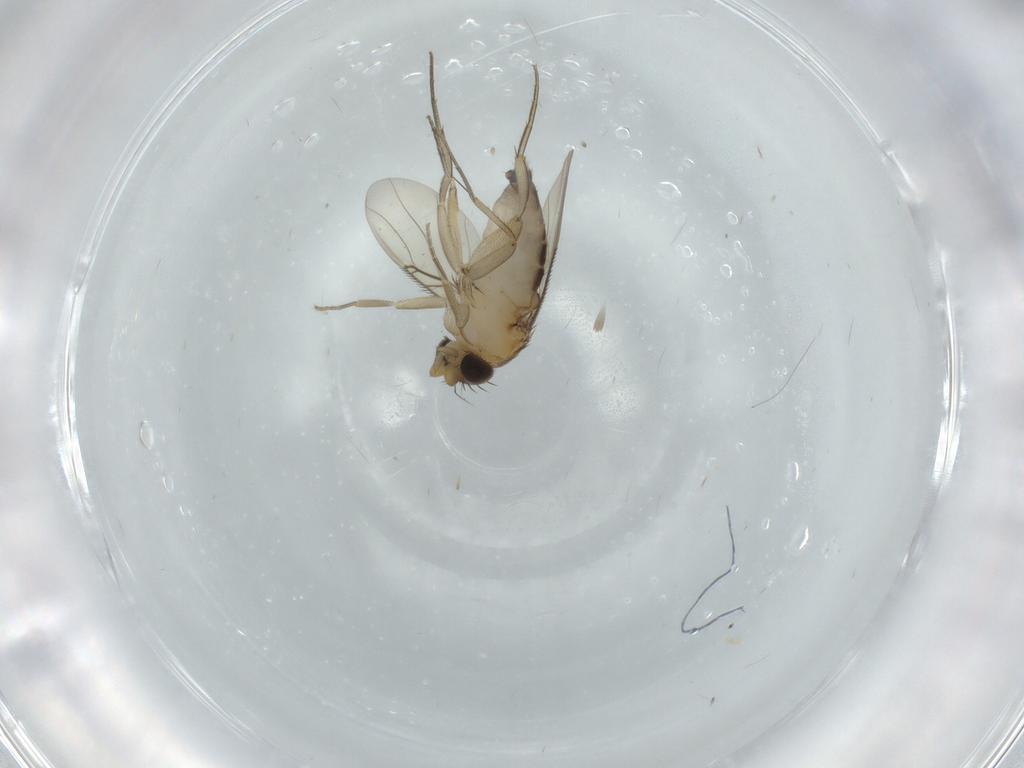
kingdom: Animalia
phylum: Arthropoda
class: Insecta
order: Diptera
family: Phoridae
